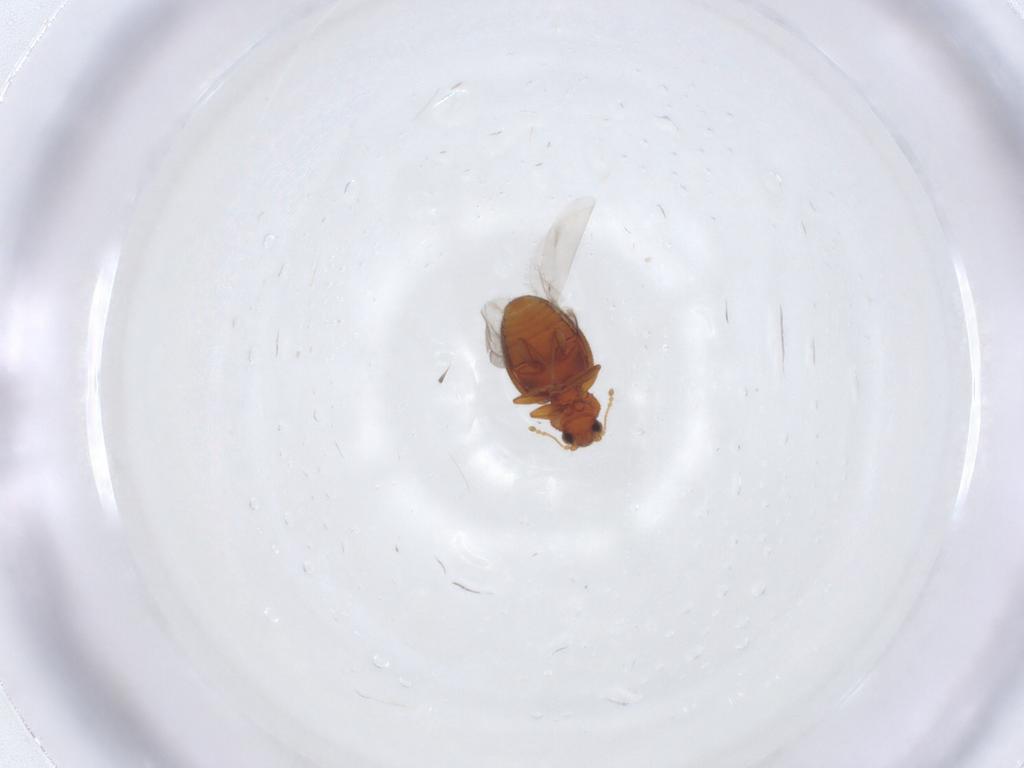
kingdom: Animalia
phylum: Arthropoda
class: Insecta
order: Coleoptera
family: Latridiidae
